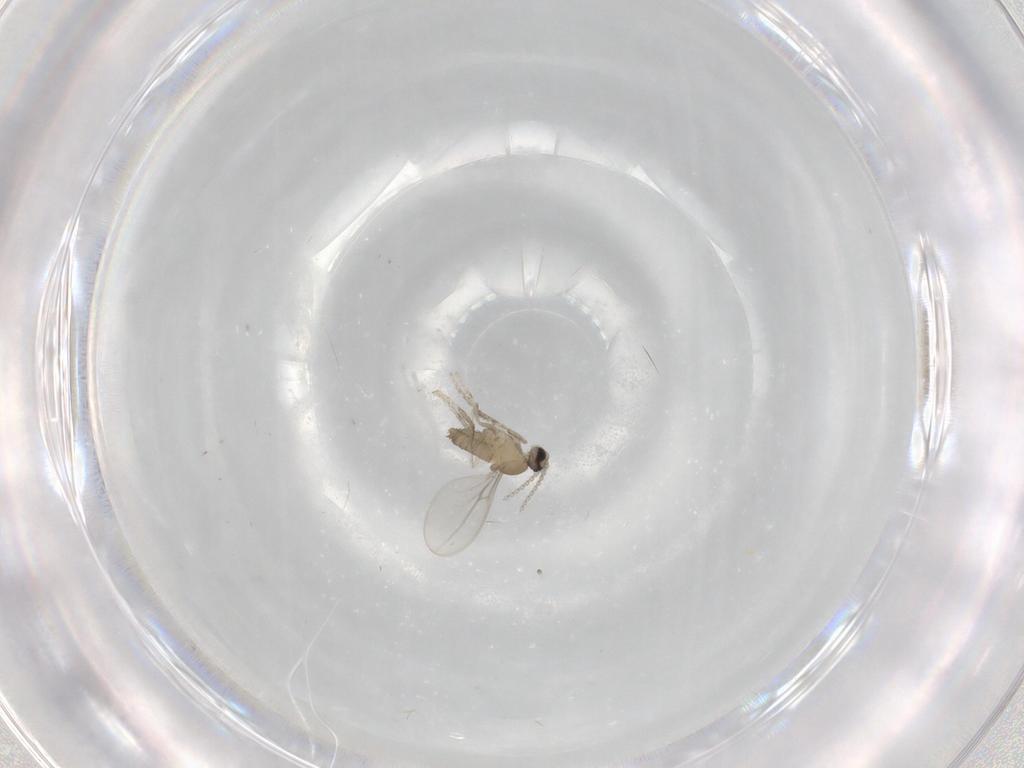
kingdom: Animalia
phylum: Arthropoda
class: Insecta
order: Diptera
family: Cecidomyiidae
